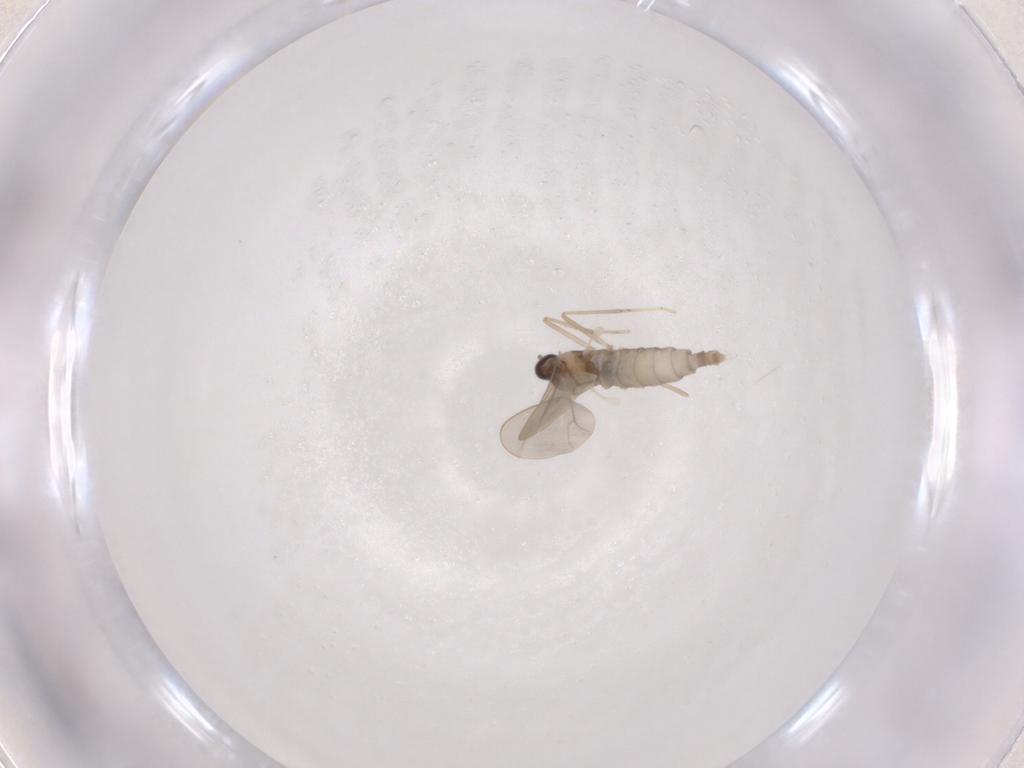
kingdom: Animalia
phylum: Arthropoda
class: Insecta
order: Diptera
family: Cecidomyiidae
